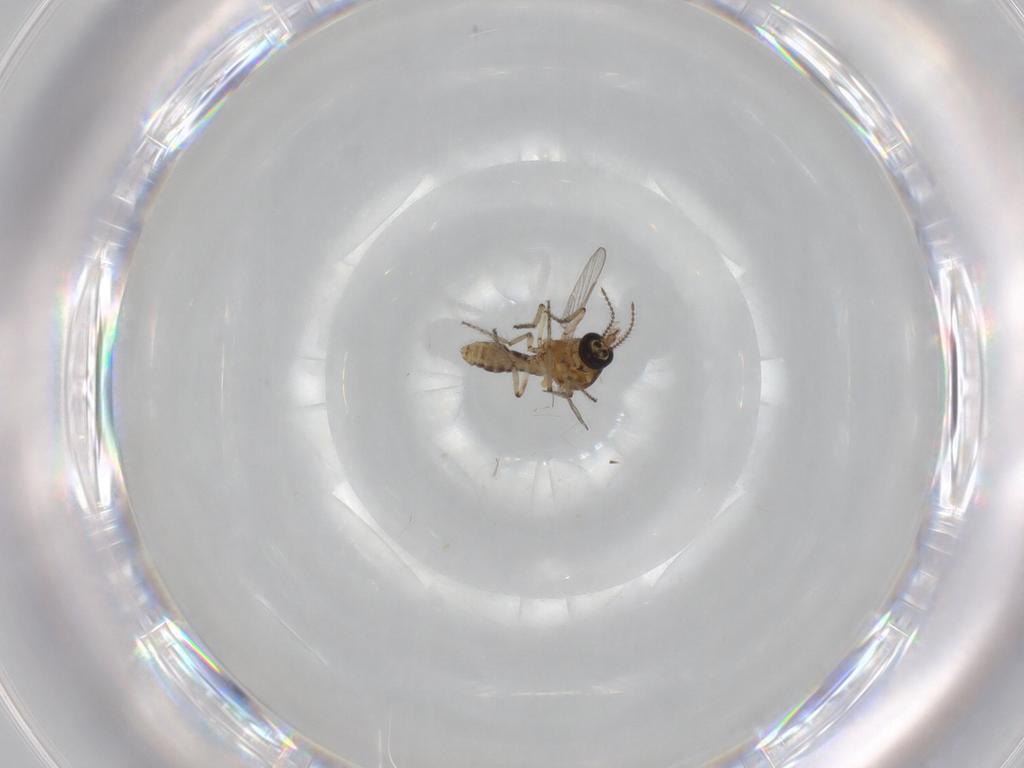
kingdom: Animalia
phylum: Arthropoda
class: Insecta
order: Diptera
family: Ceratopogonidae
